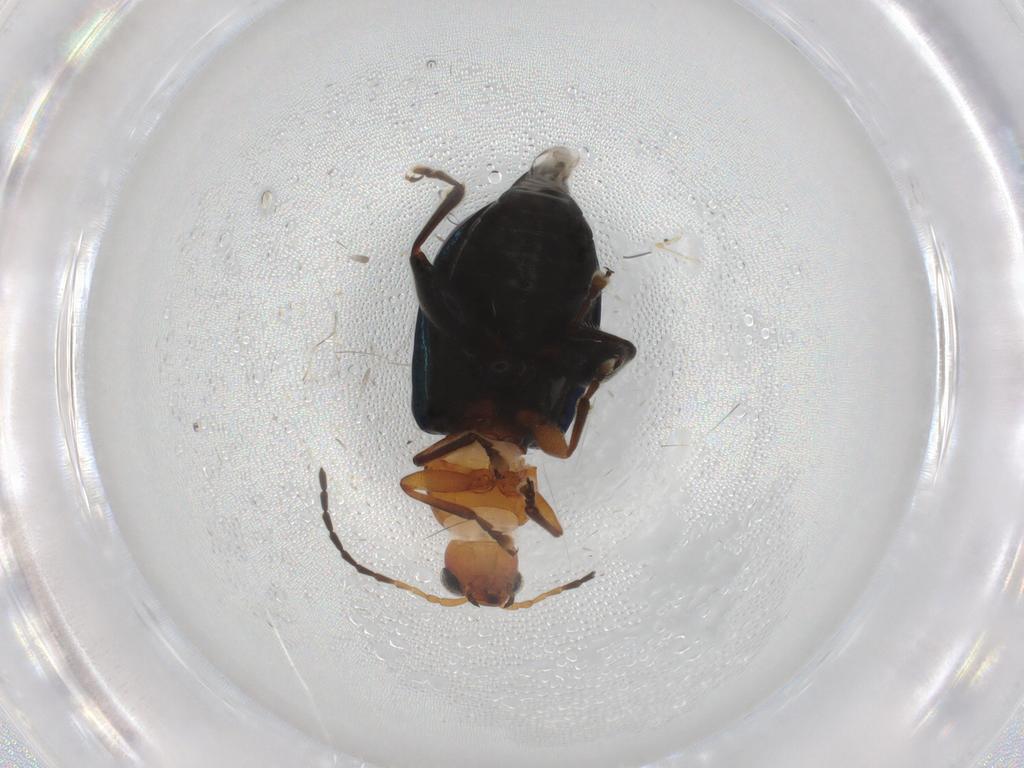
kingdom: Animalia
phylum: Arthropoda
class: Insecta
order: Coleoptera
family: Chrysomelidae
